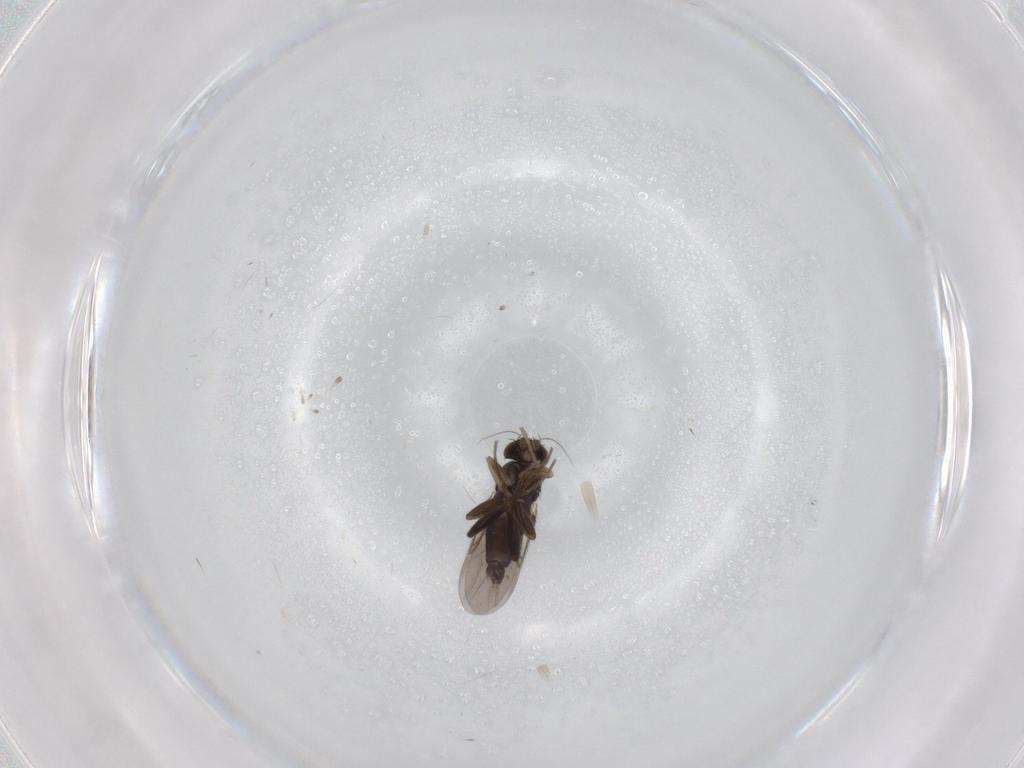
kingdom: Animalia
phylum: Arthropoda
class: Insecta
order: Diptera
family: Phoridae
